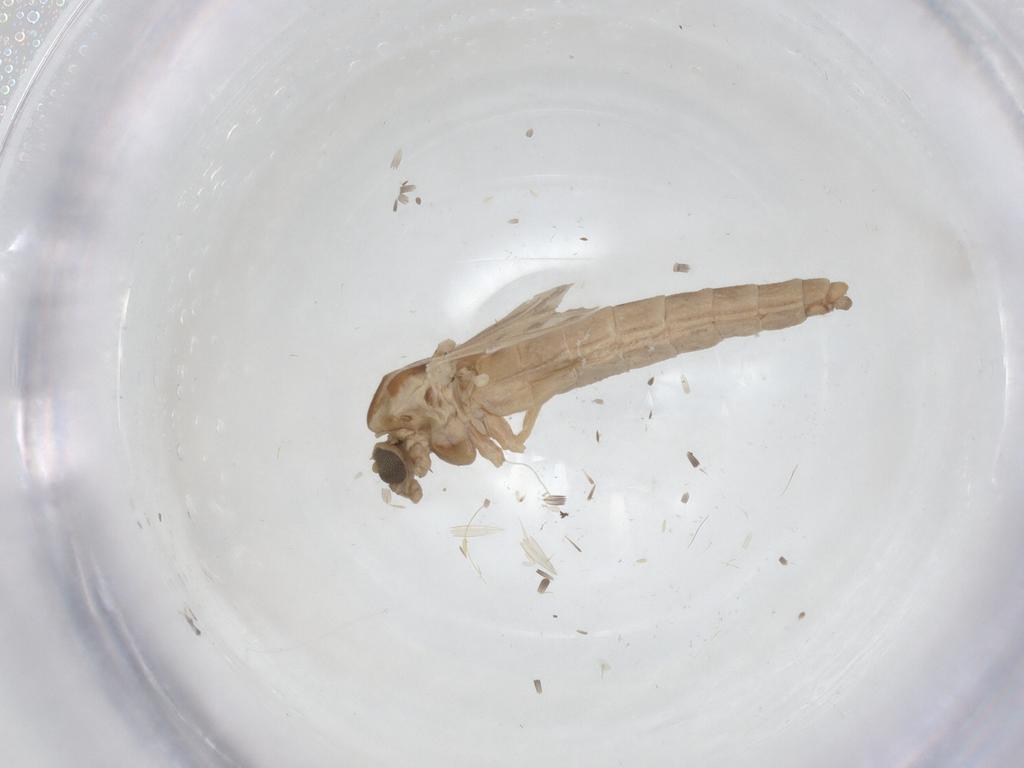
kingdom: Animalia
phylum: Arthropoda
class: Insecta
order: Diptera
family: Chironomidae
